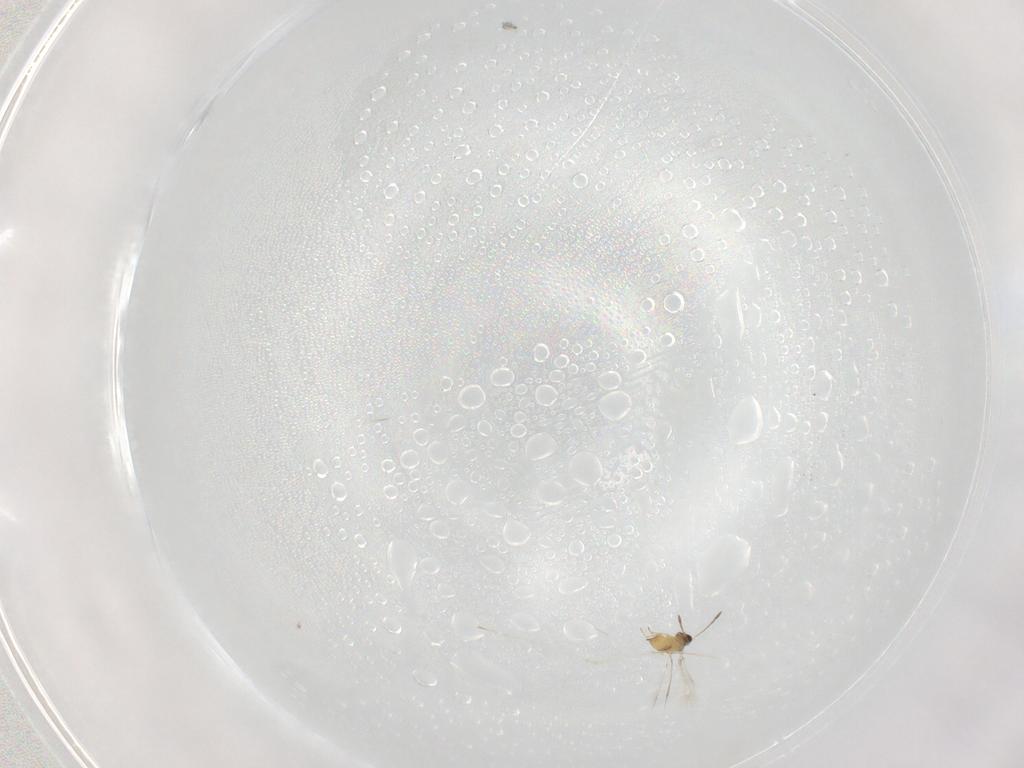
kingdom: Animalia
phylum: Arthropoda
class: Insecta
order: Hymenoptera
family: Mymaridae
